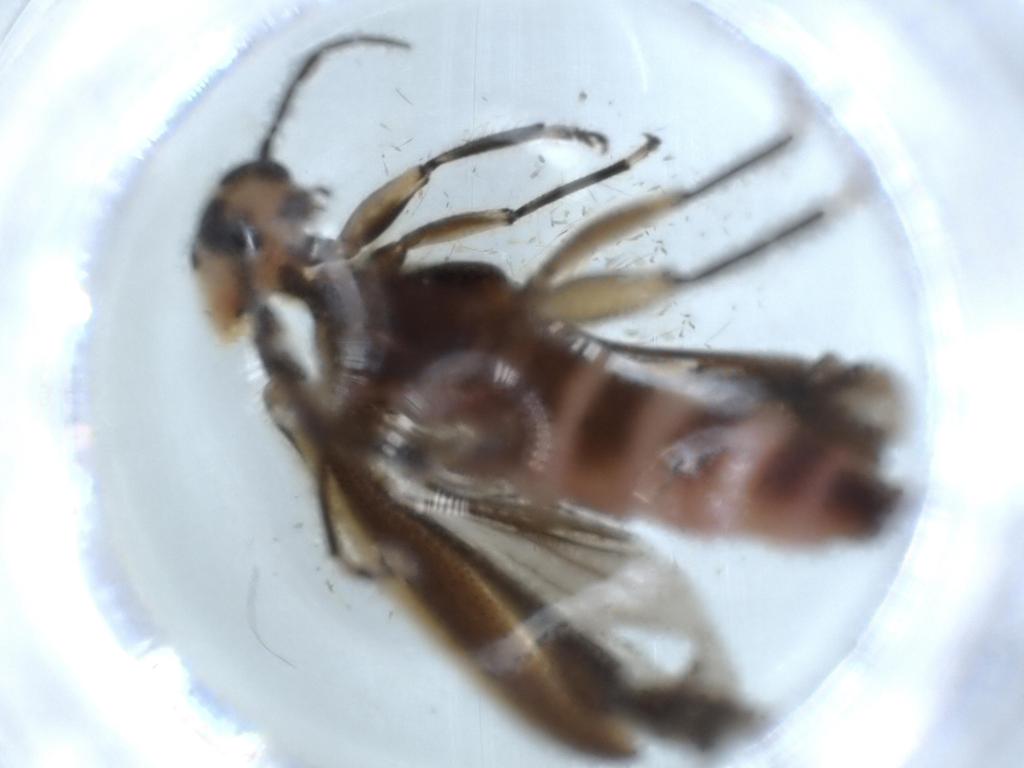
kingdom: Animalia
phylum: Arthropoda
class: Insecta
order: Coleoptera
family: Cleridae
